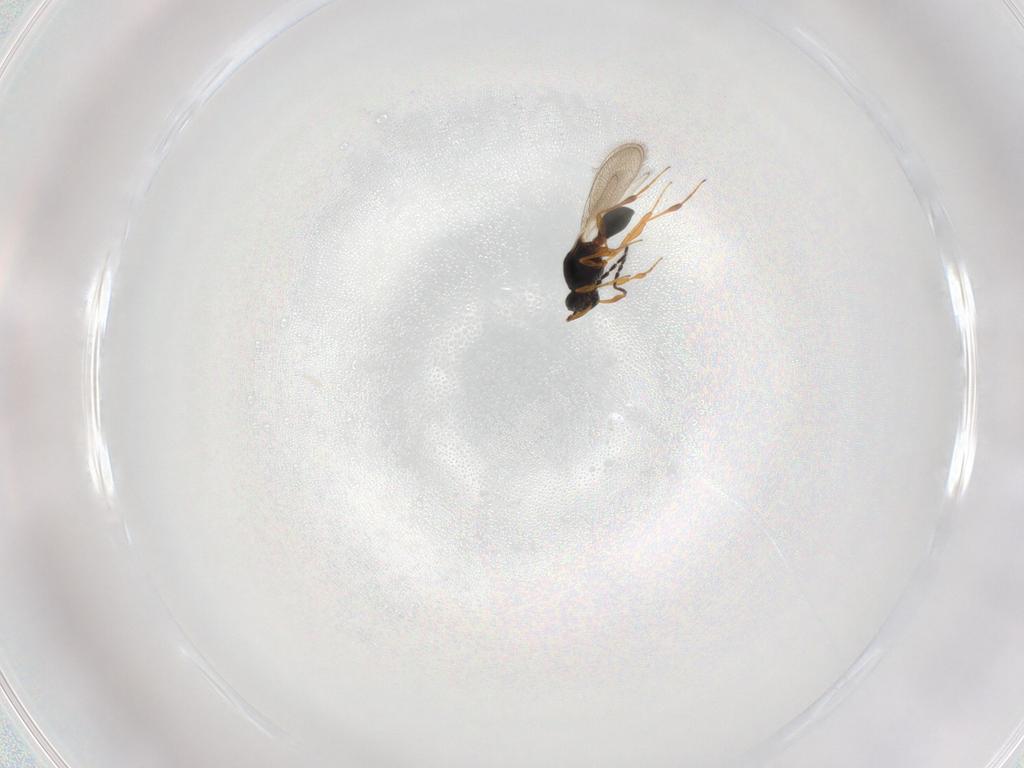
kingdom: Animalia
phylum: Arthropoda
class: Insecta
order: Hymenoptera
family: Platygastridae
